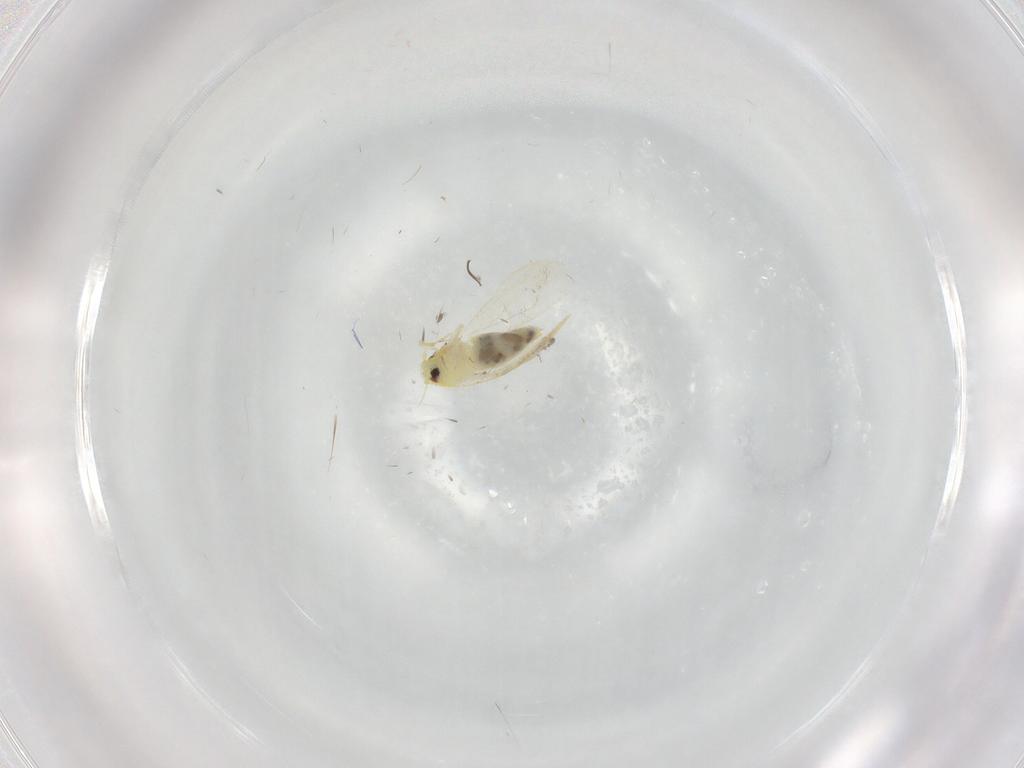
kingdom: Animalia
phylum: Arthropoda
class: Insecta
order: Hemiptera
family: Aleyrodidae
